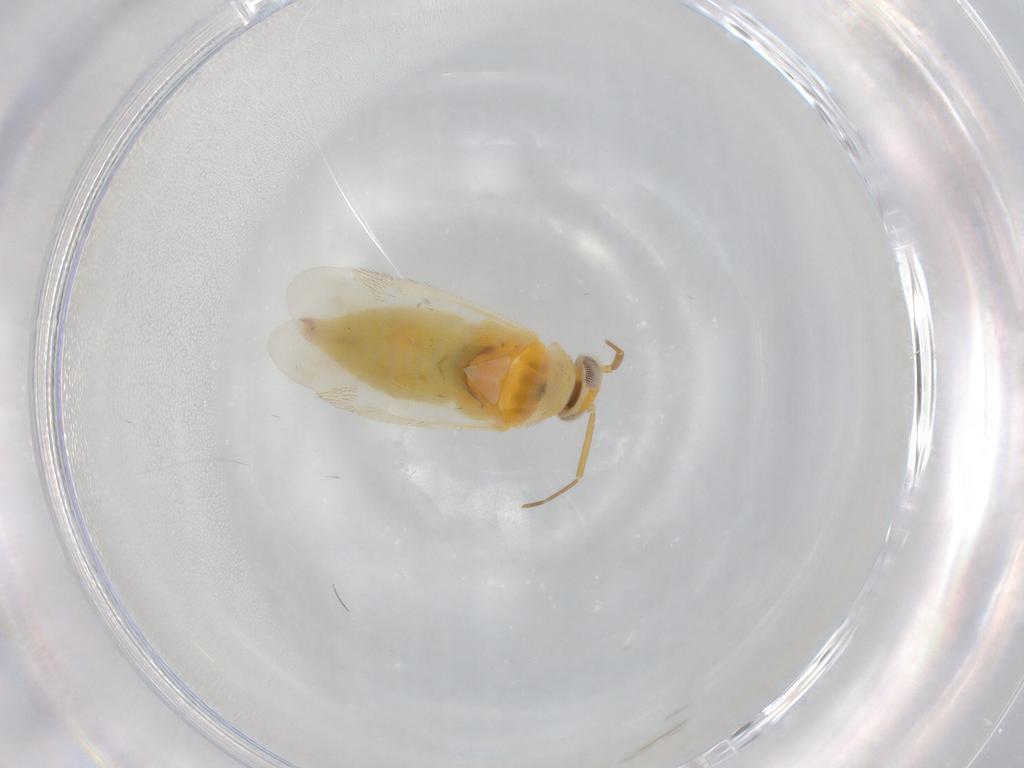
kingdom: Animalia
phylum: Arthropoda
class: Insecta
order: Hemiptera
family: Miridae
